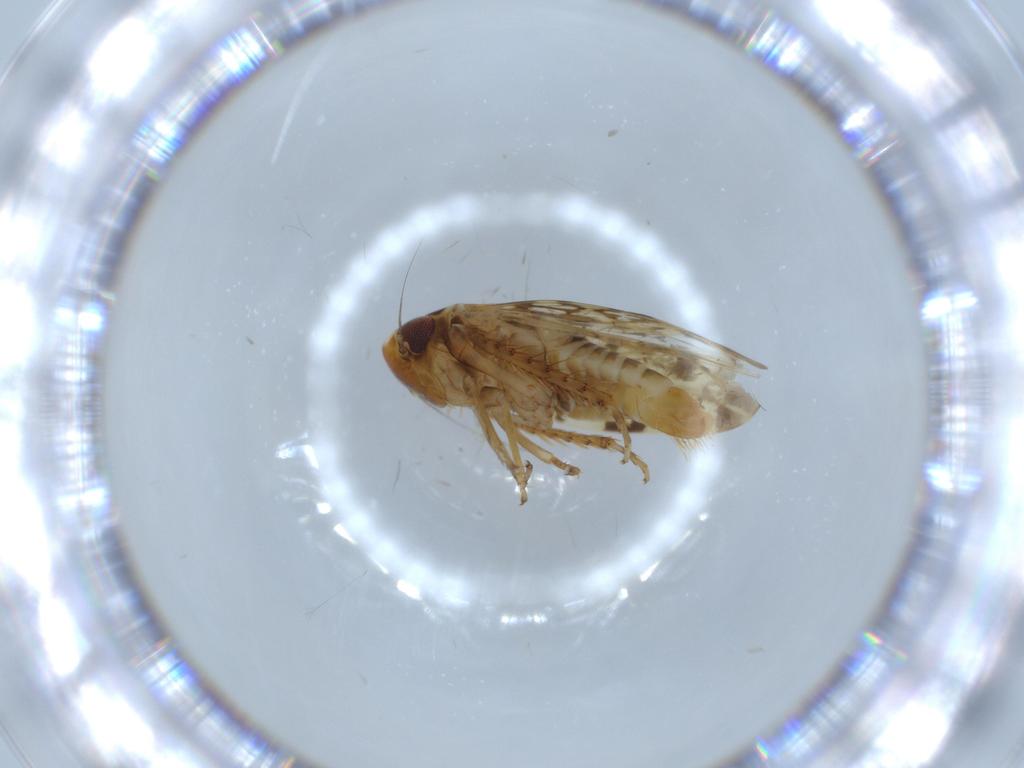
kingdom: Animalia
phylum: Arthropoda
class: Insecta
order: Hemiptera
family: Cicadellidae
